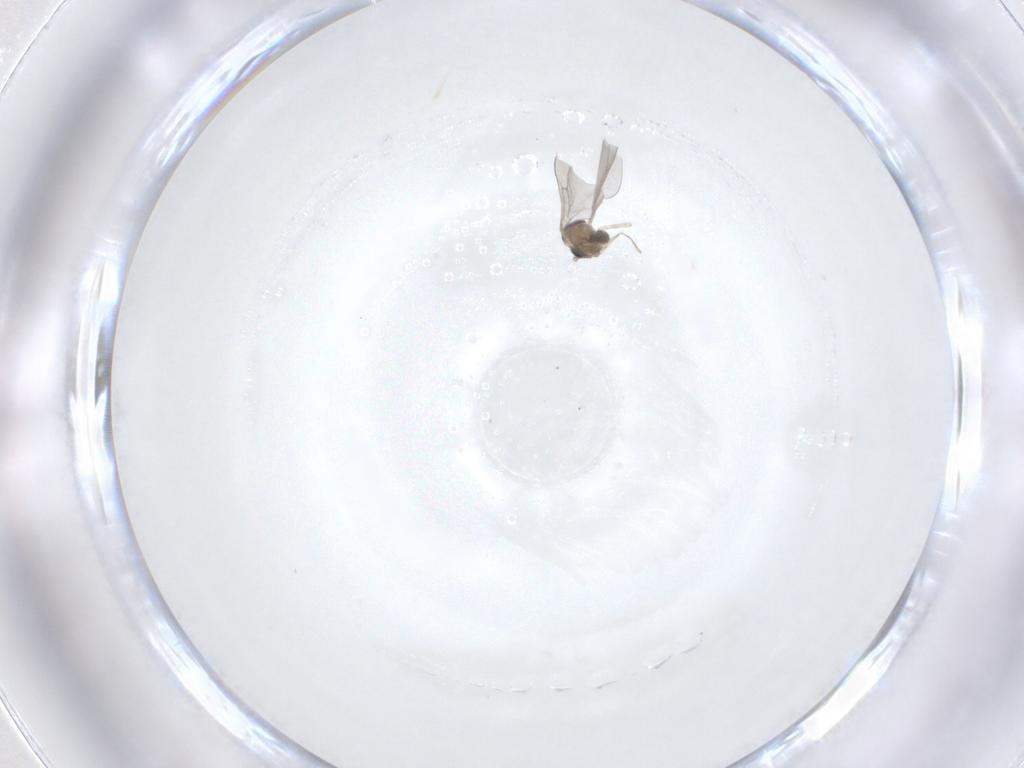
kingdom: Animalia
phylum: Arthropoda
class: Insecta
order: Diptera
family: Cecidomyiidae
